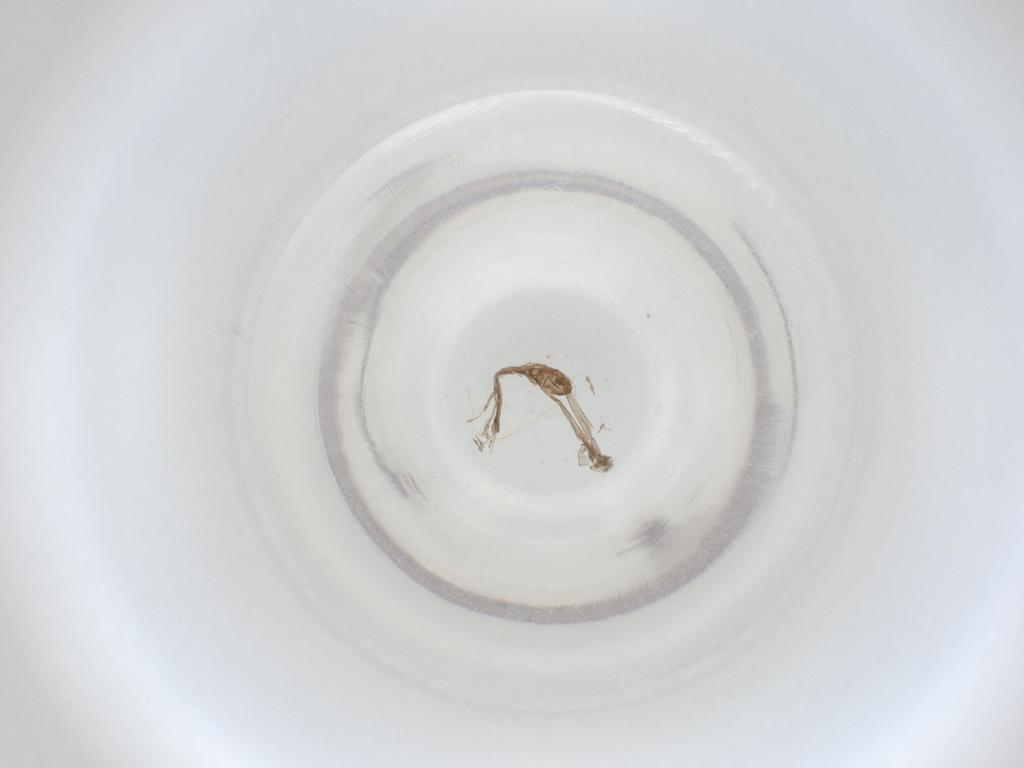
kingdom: Animalia
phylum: Arthropoda
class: Insecta
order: Diptera
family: Cecidomyiidae
